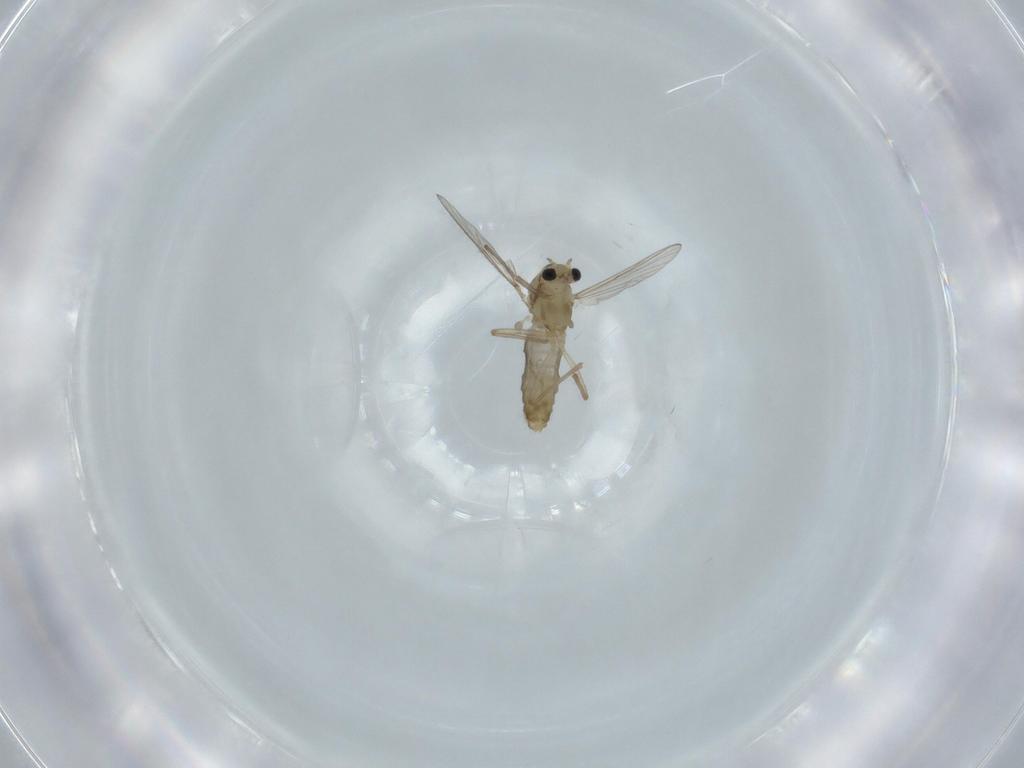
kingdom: Animalia
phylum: Arthropoda
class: Insecta
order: Diptera
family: Chironomidae
